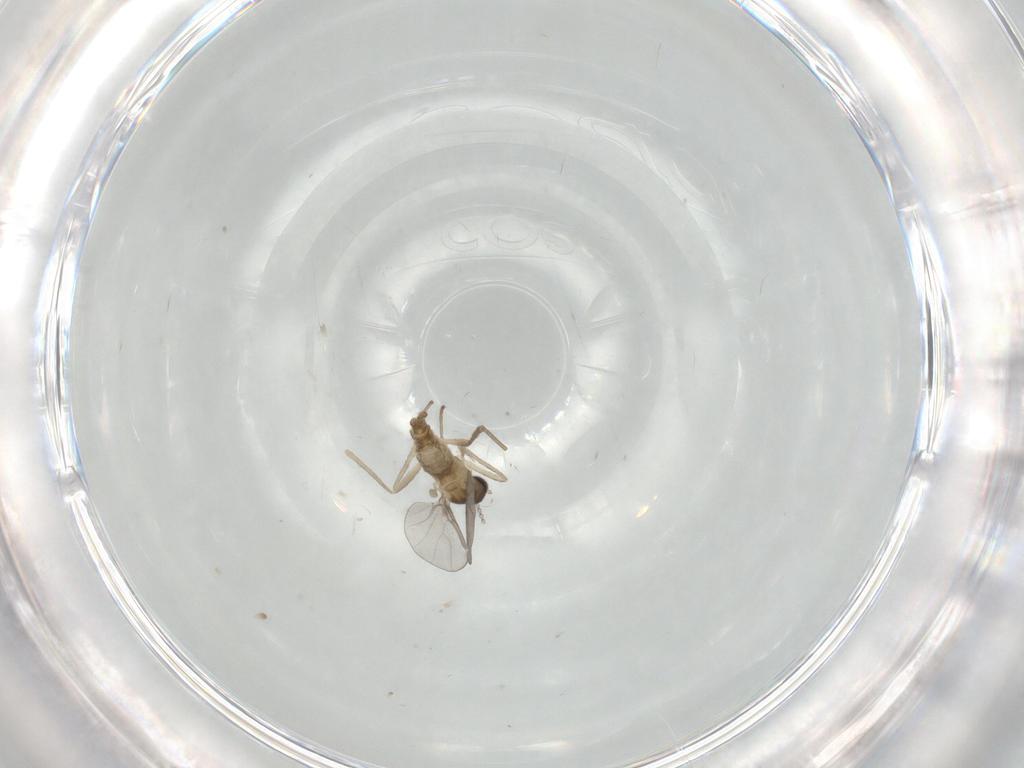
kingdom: Animalia
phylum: Arthropoda
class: Insecta
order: Diptera
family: Cecidomyiidae
